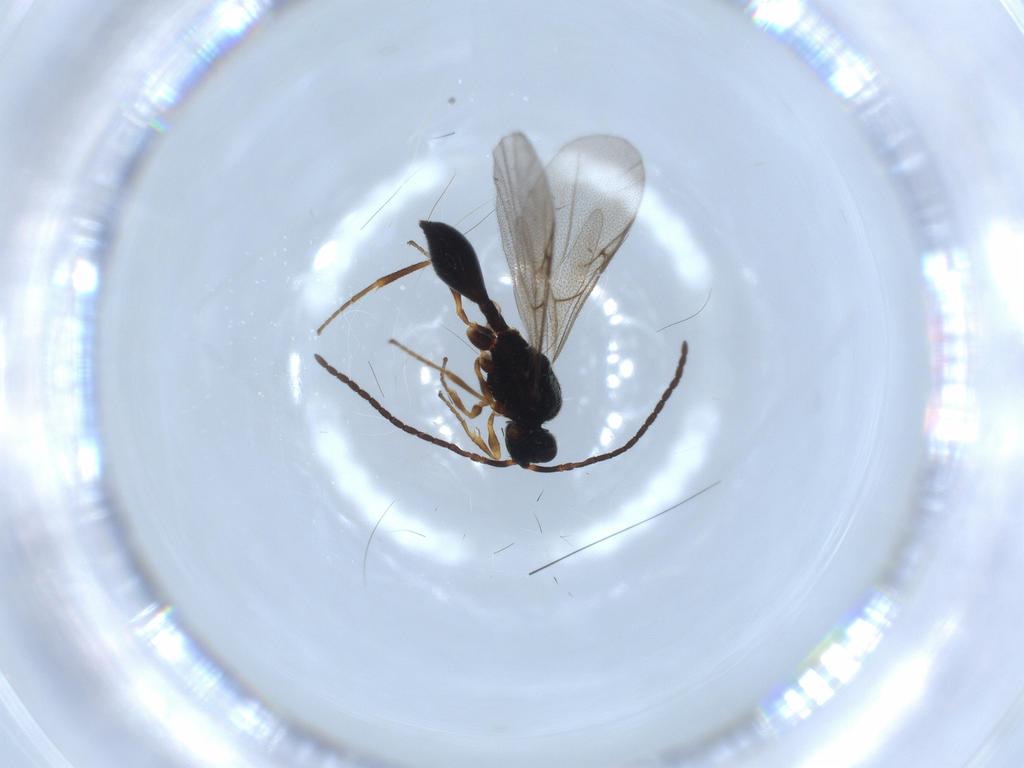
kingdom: Animalia
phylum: Arthropoda
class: Insecta
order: Hymenoptera
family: Diapriidae
